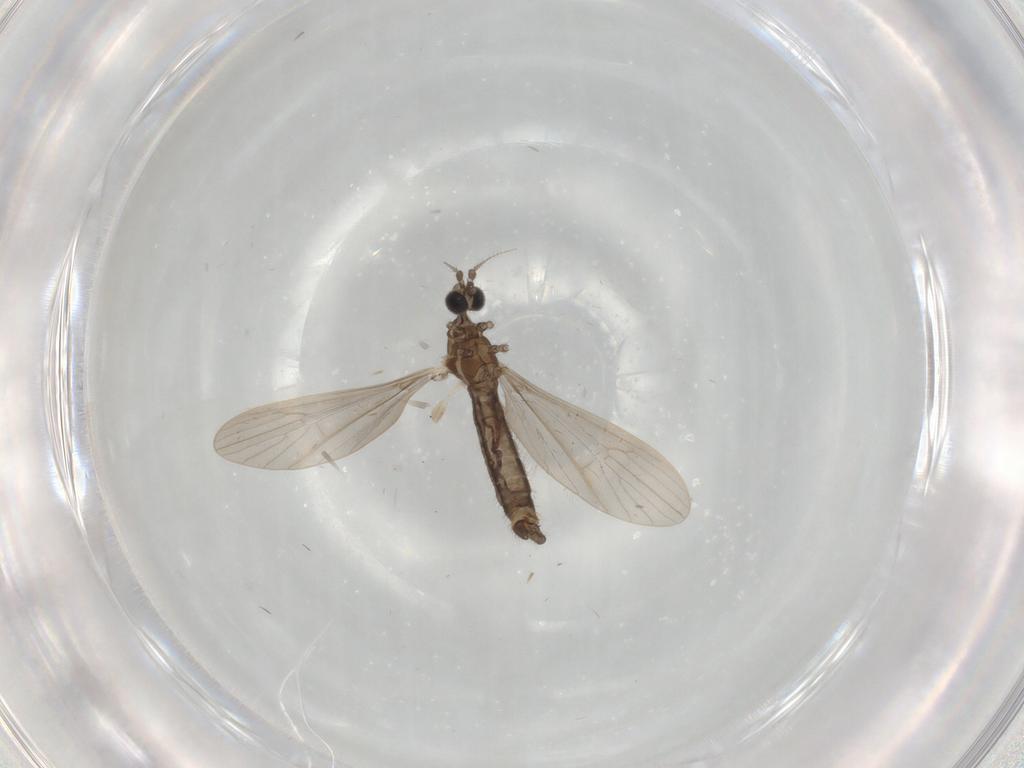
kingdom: Animalia
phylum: Arthropoda
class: Insecta
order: Diptera
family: Limoniidae
